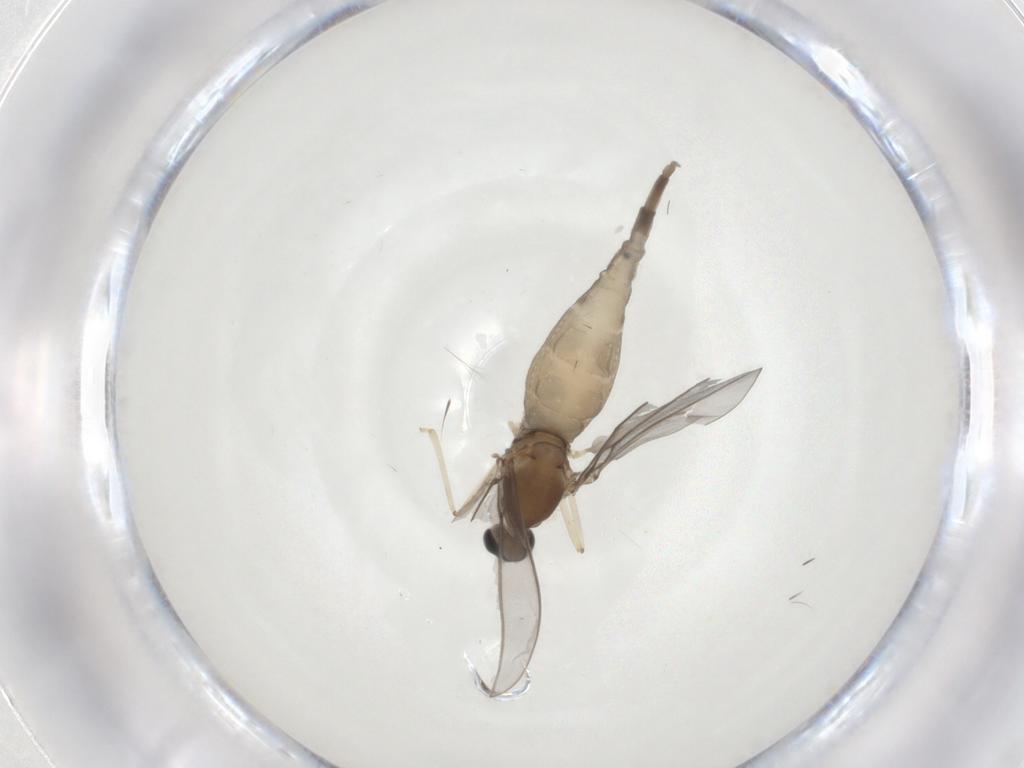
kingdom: Animalia
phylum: Arthropoda
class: Insecta
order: Diptera
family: Cecidomyiidae
